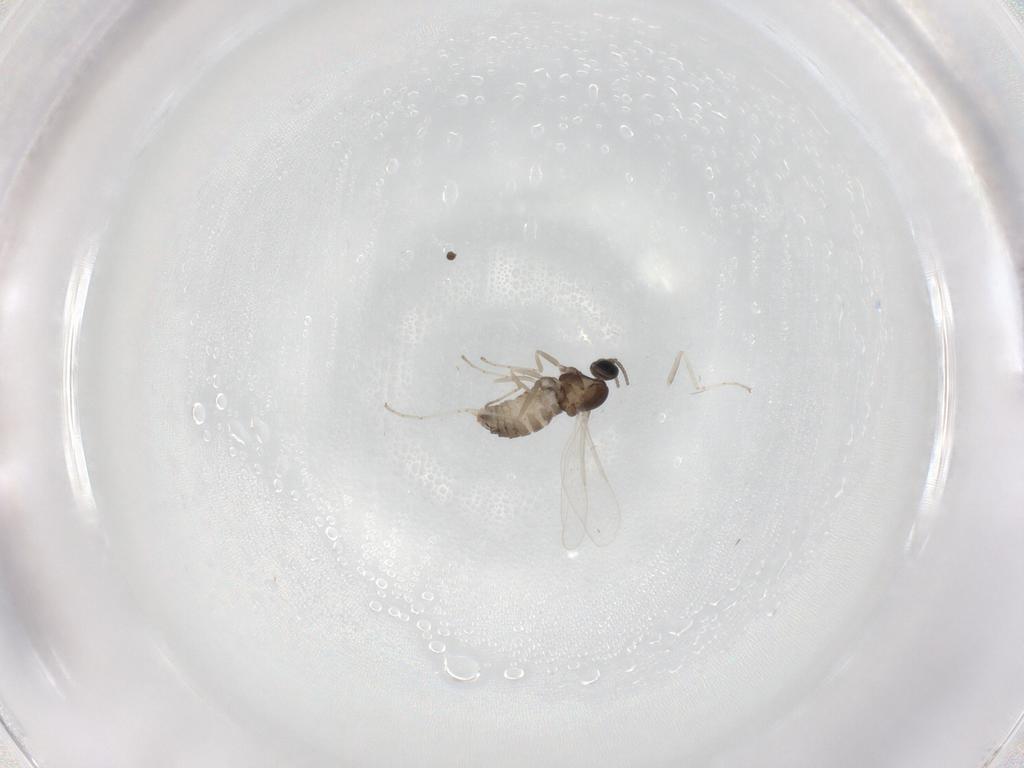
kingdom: Animalia
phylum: Arthropoda
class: Insecta
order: Diptera
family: Cecidomyiidae
